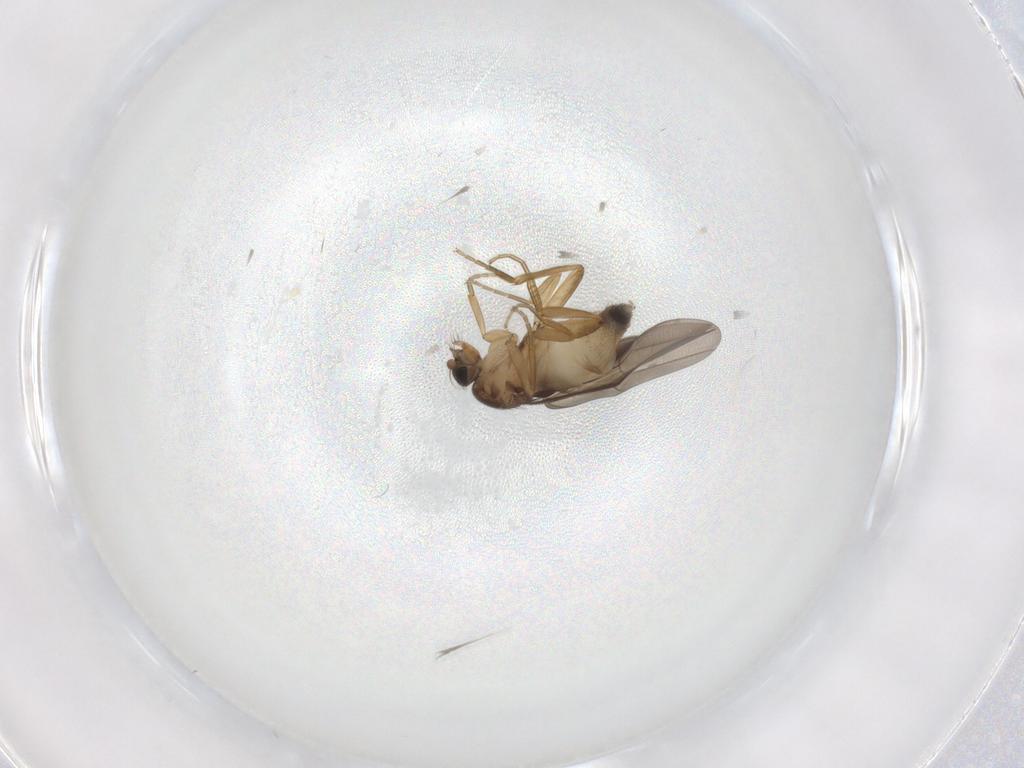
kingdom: Animalia
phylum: Arthropoda
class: Insecta
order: Diptera
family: Phoridae
